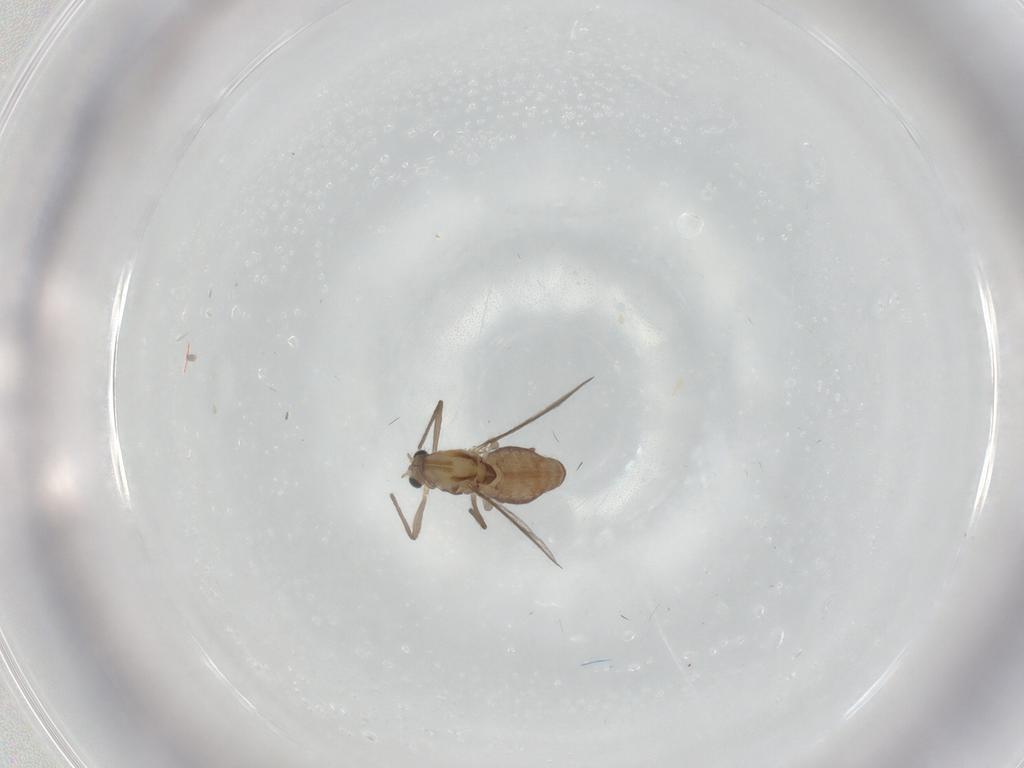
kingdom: Animalia
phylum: Arthropoda
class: Insecta
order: Diptera
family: Chironomidae
